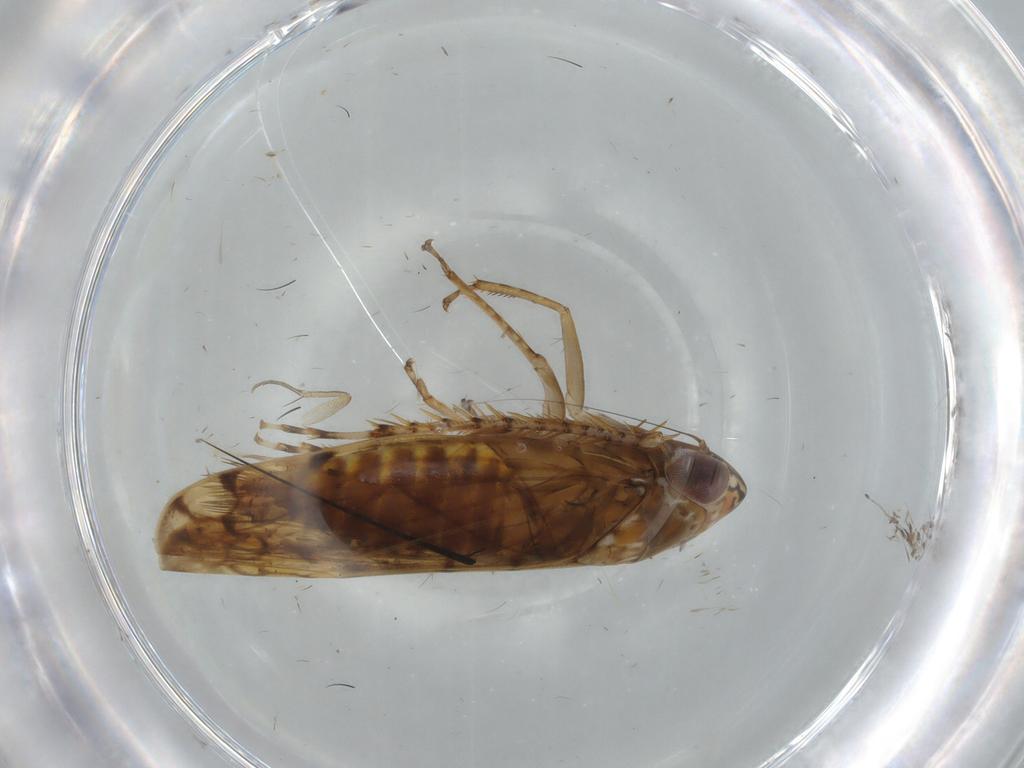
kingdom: Animalia
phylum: Arthropoda
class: Insecta
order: Hemiptera
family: Cicadellidae
